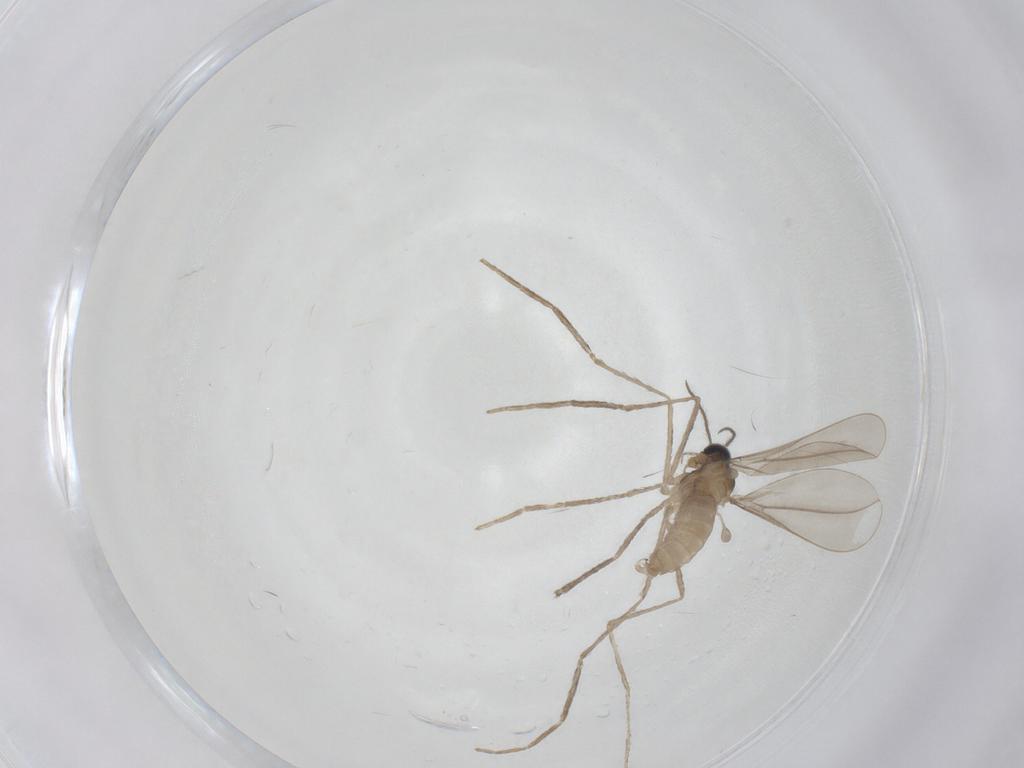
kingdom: Animalia
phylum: Arthropoda
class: Insecta
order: Diptera
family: Cecidomyiidae
